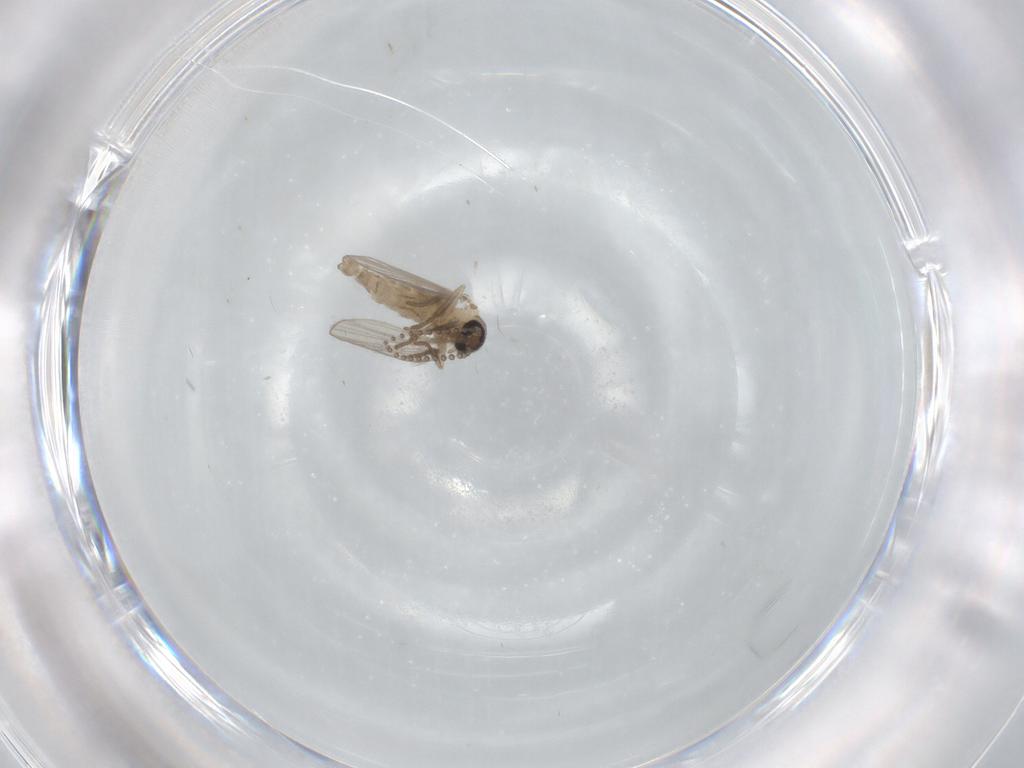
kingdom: Animalia
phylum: Arthropoda
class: Insecta
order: Diptera
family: Psychodidae
